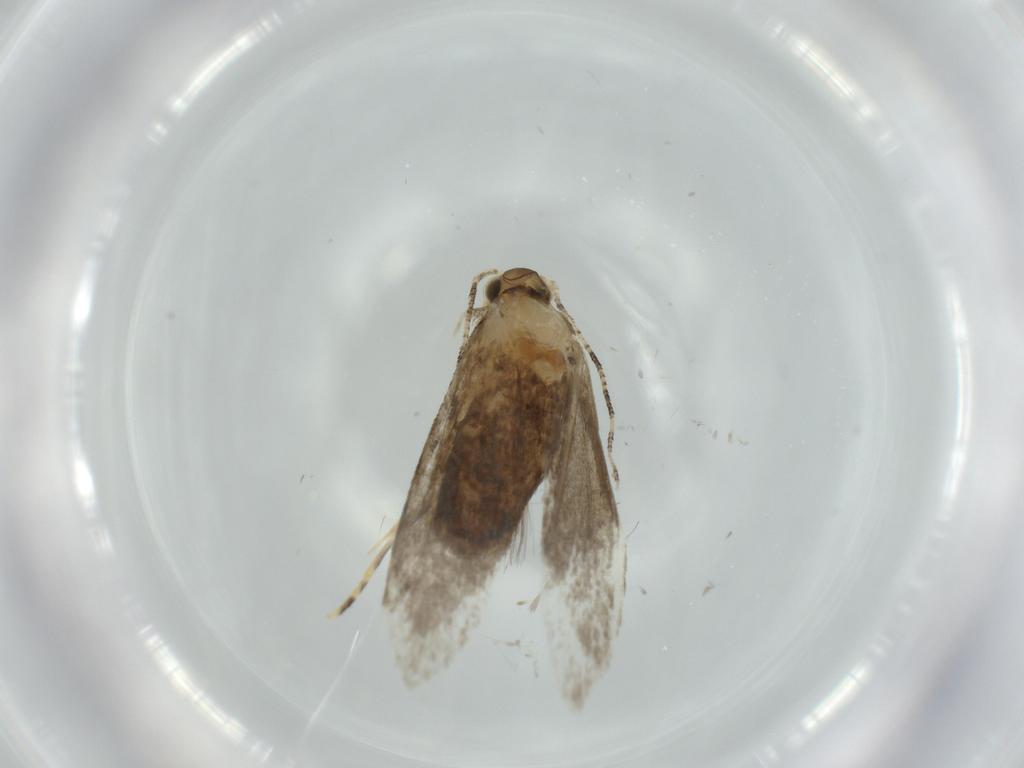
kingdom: Animalia
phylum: Arthropoda
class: Insecta
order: Lepidoptera
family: Tineidae
